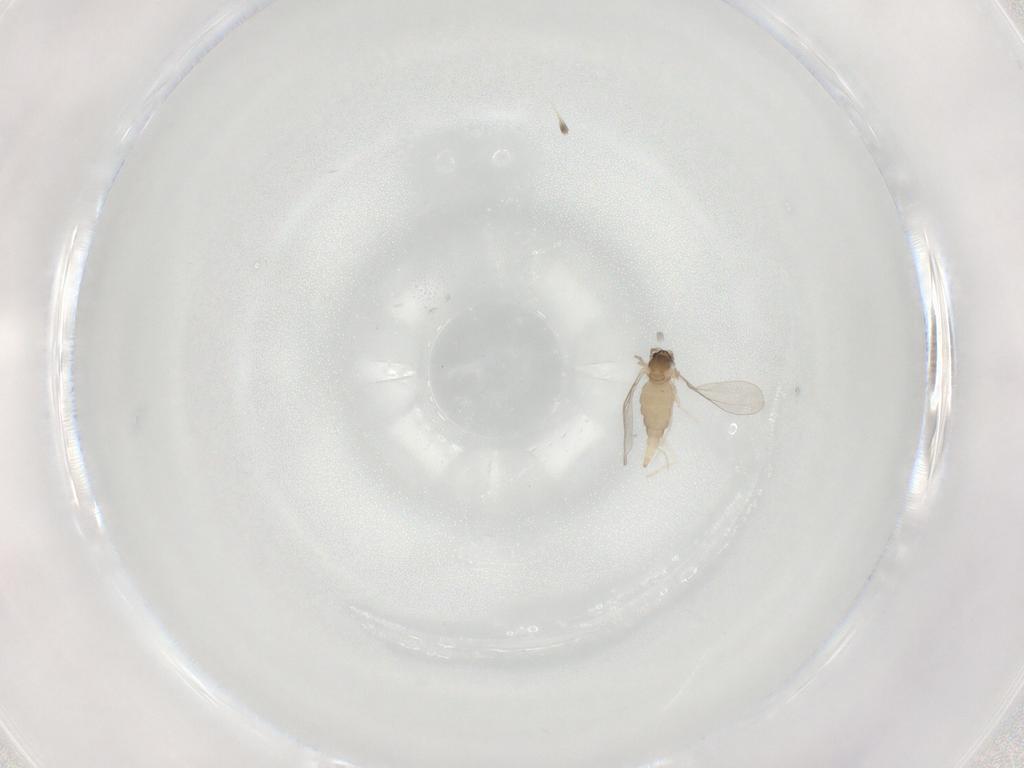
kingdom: Animalia
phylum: Arthropoda
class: Insecta
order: Diptera
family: Cecidomyiidae
